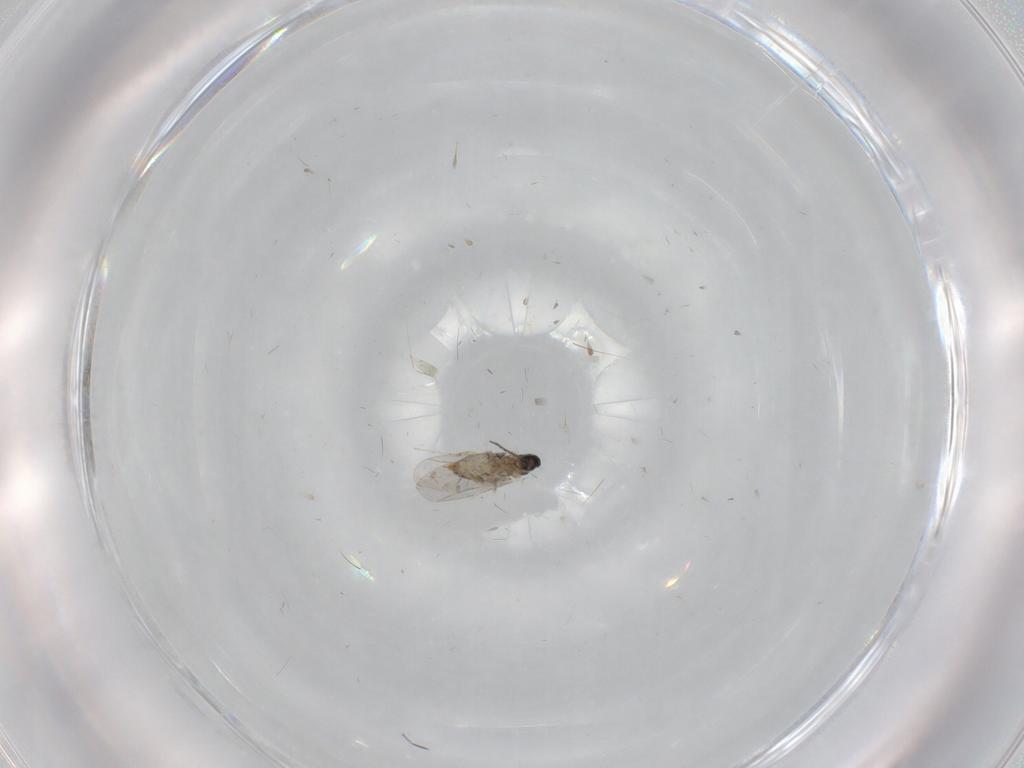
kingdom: Animalia
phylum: Arthropoda
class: Insecta
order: Diptera
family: Cecidomyiidae
